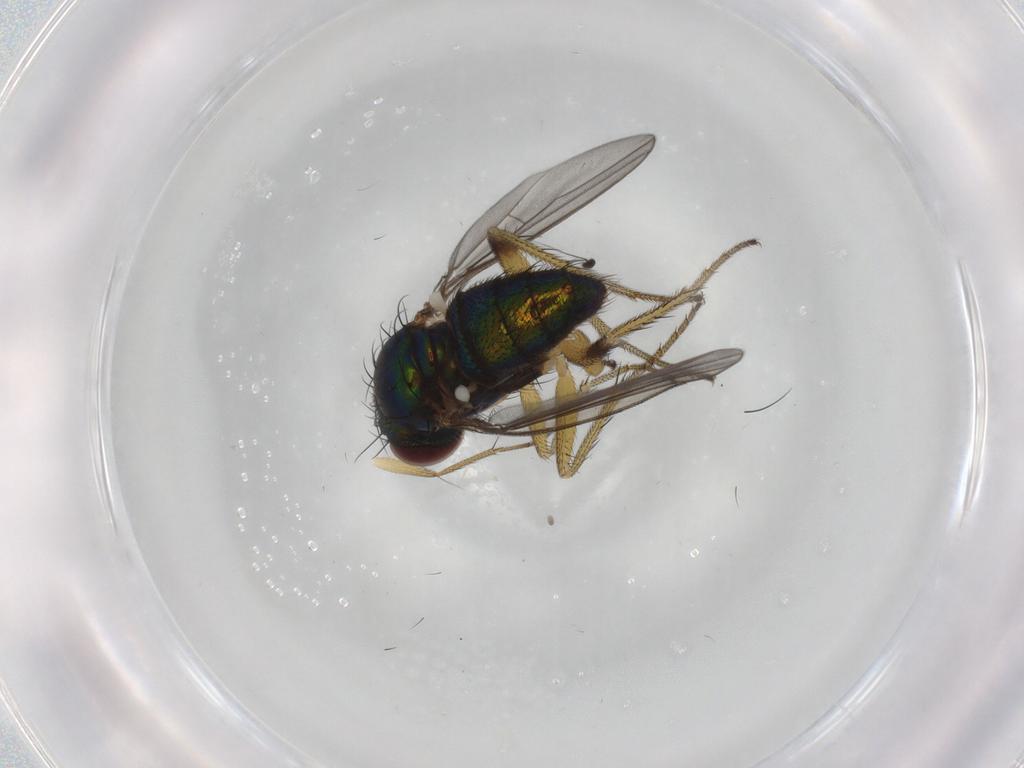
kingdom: Animalia
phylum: Arthropoda
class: Insecta
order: Diptera
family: Dolichopodidae
